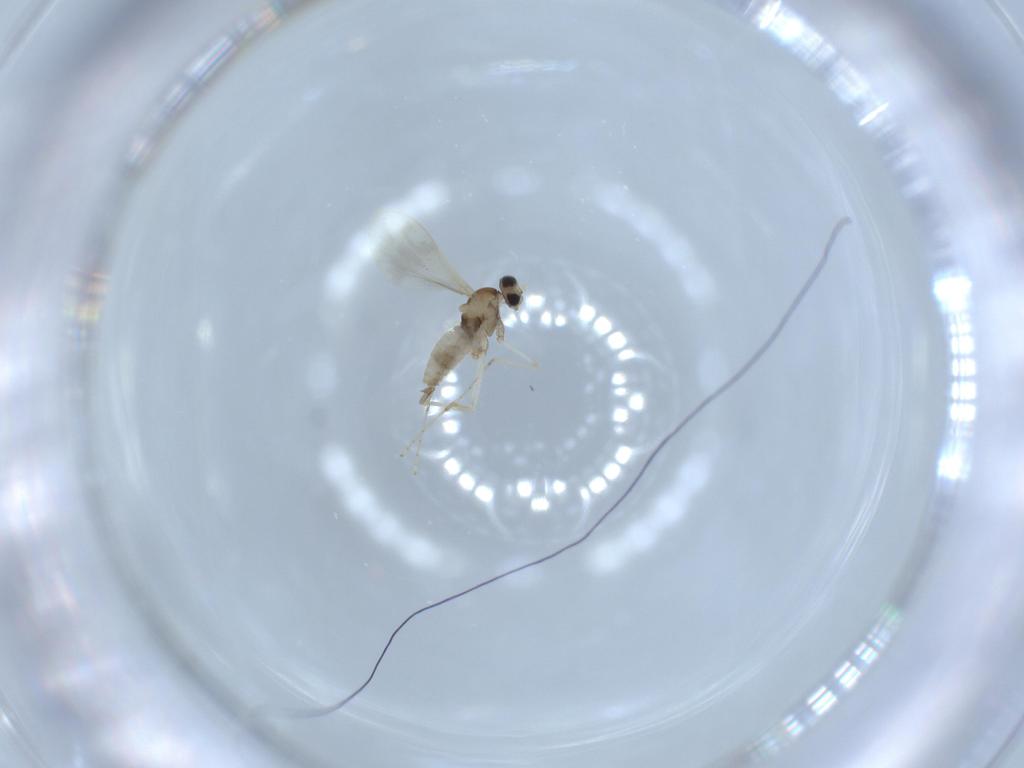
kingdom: Animalia
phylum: Arthropoda
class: Insecta
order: Diptera
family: Cecidomyiidae
